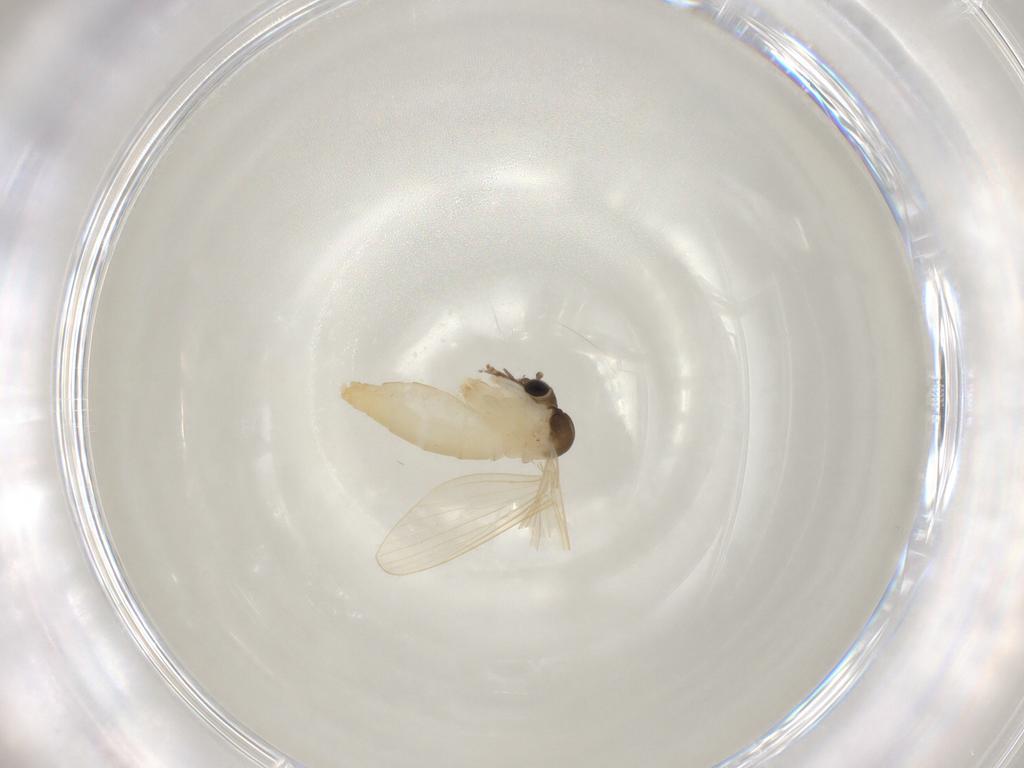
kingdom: Animalia
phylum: Arthropoda
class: Insecta
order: Diptera
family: Psychodidae
